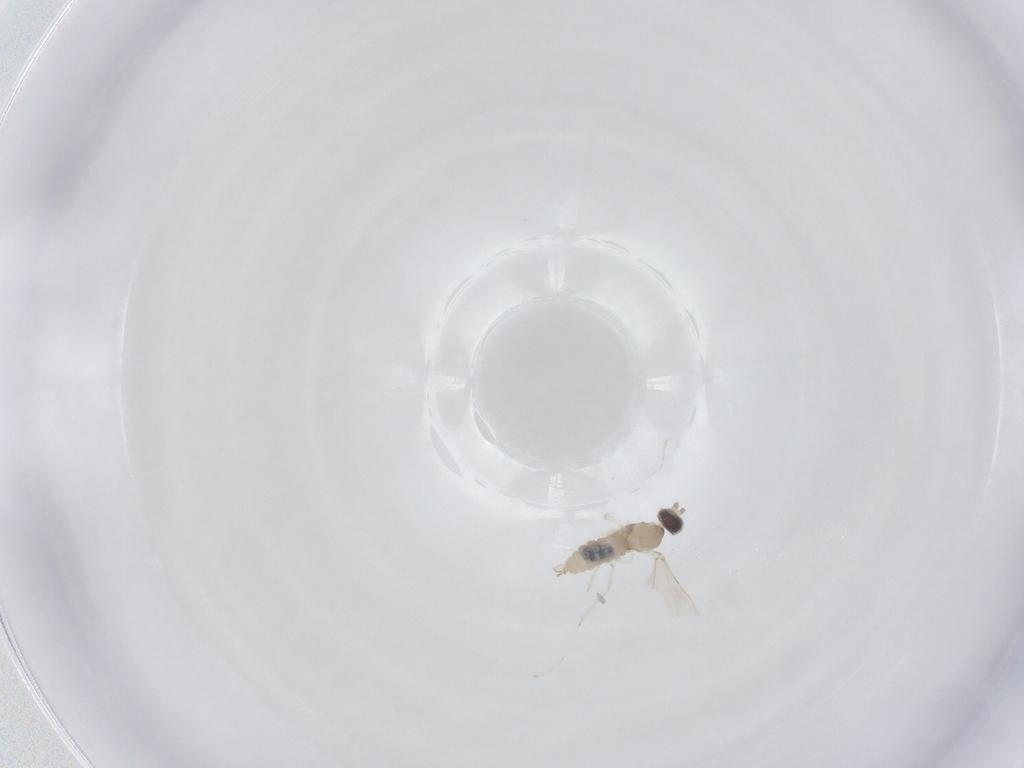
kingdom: Animalia
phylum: Arthropoda
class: Insecta
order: Diptera
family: Cecidomyiidae
